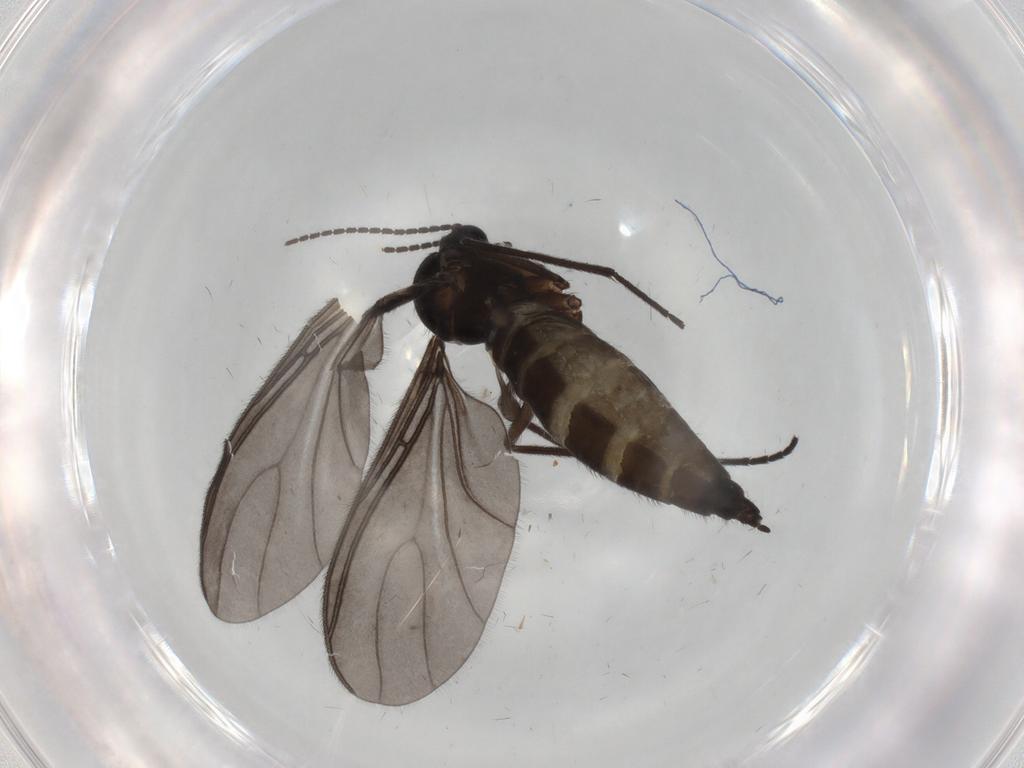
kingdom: Animalia
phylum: Arthropoda
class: Insecta
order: Diptera
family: Sciaridae
